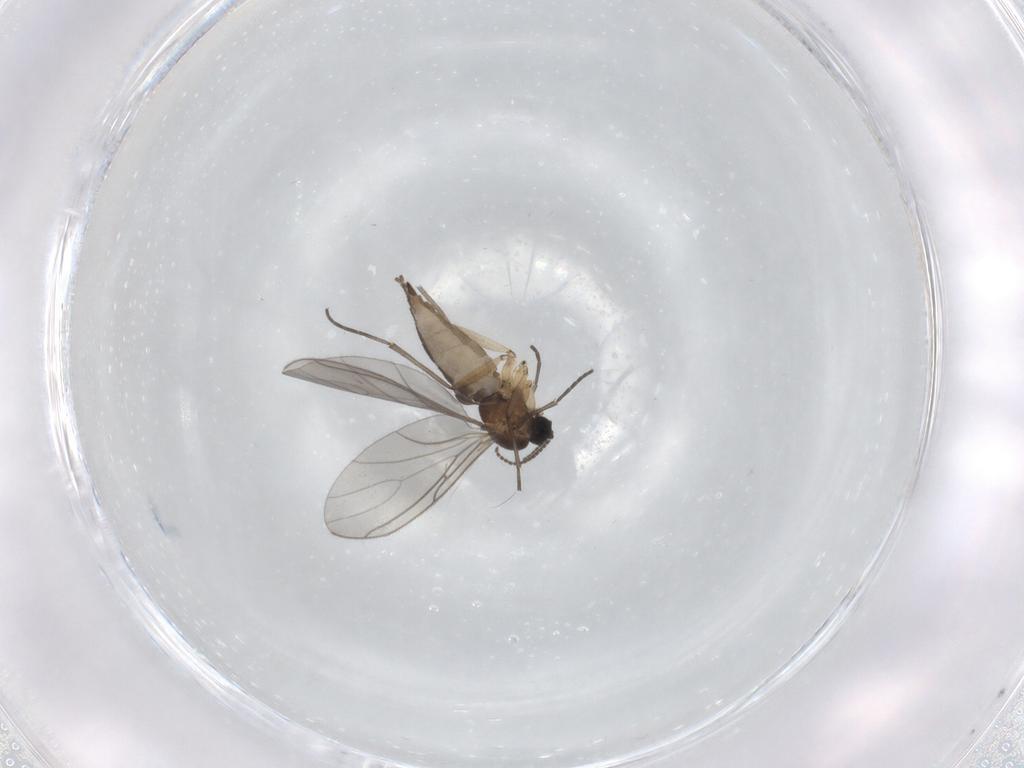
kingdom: Animalia
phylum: Arthropoda
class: Insecta
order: Diptera
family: Sciaridae
